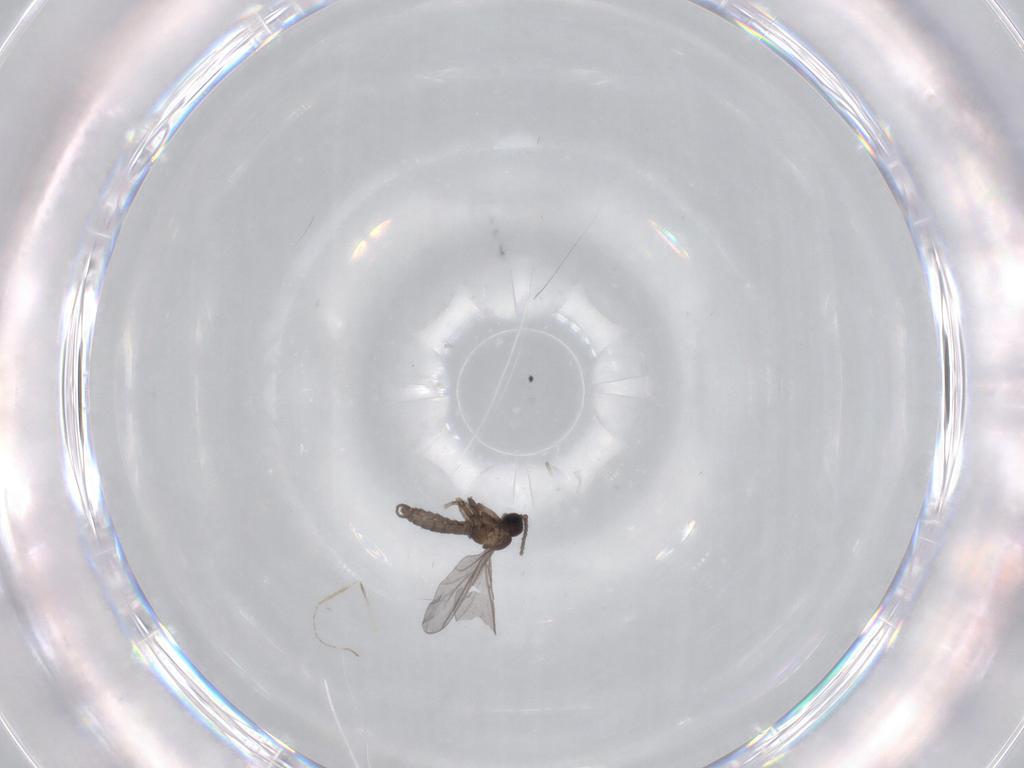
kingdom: Animalia
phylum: Arthropoda
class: Insecta
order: Diptera
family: Sciaridae
